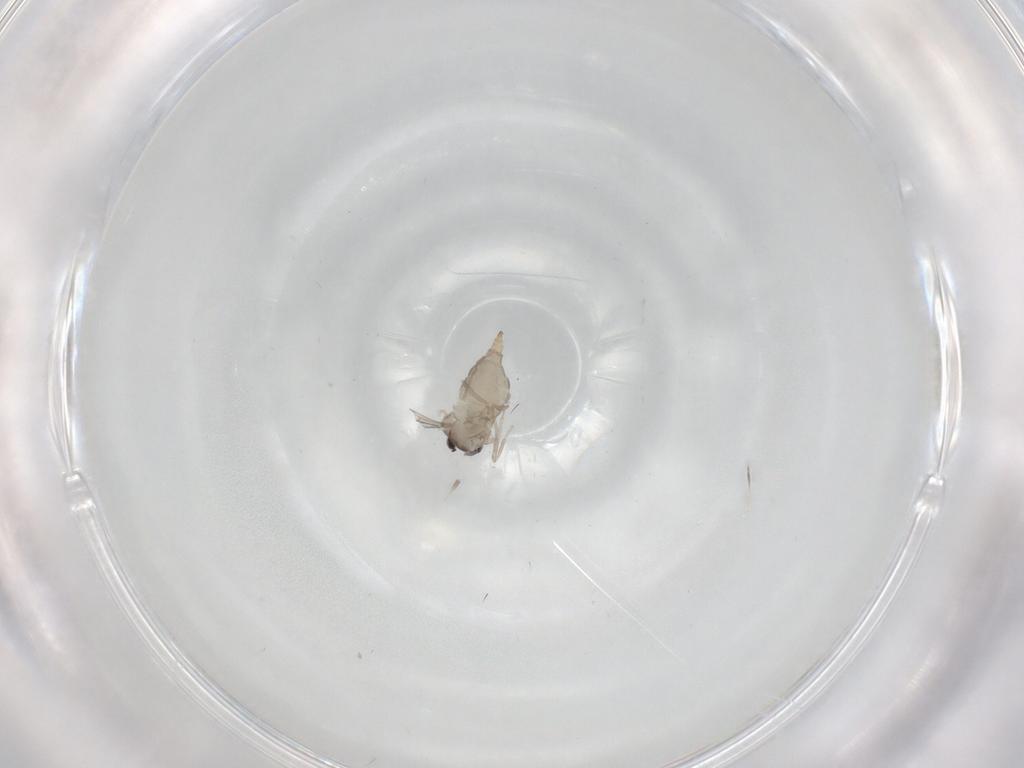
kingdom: Animalia
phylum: Arthropoda
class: Insecta
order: Diptera
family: Cecidomyiidae
